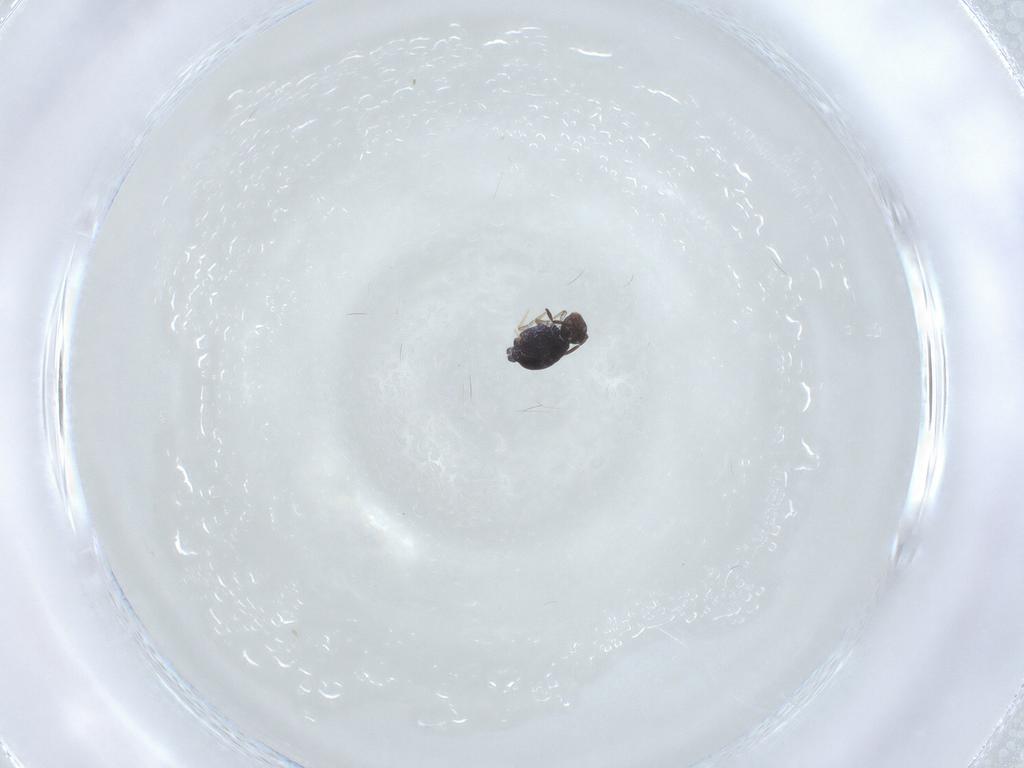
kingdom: Animalia
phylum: Arthropoda
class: Collembola
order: Symphypleona
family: Katiannidae
